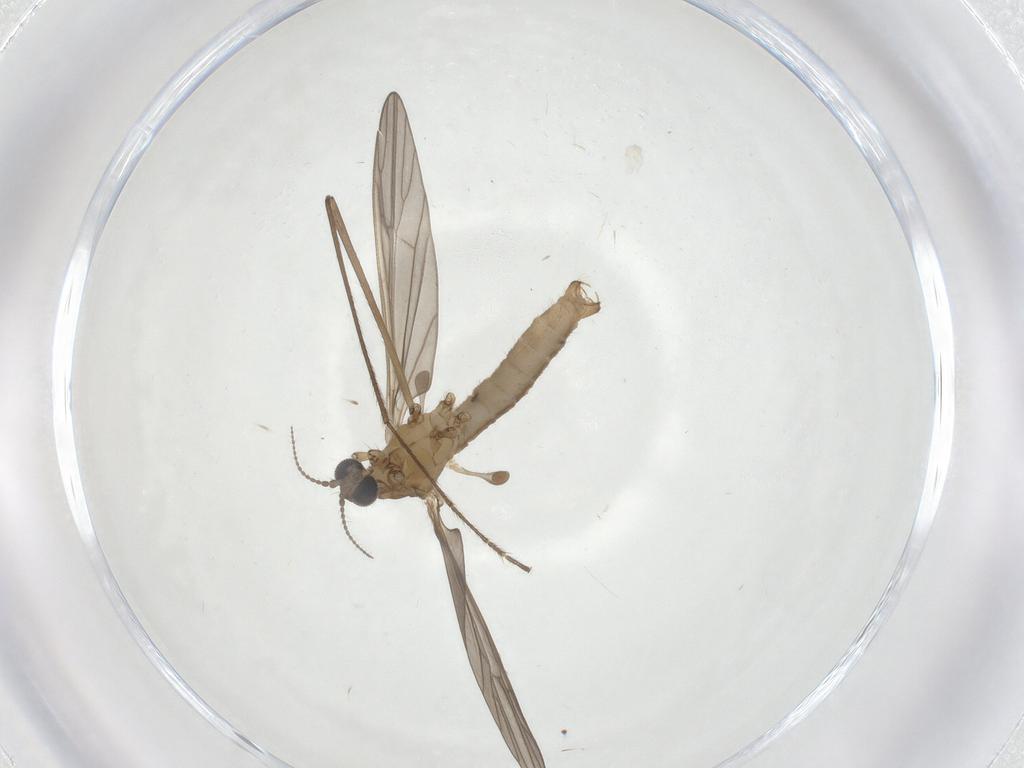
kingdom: Animalia
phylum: Arthropoda
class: Insecta
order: Diptera
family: Limoniidae
